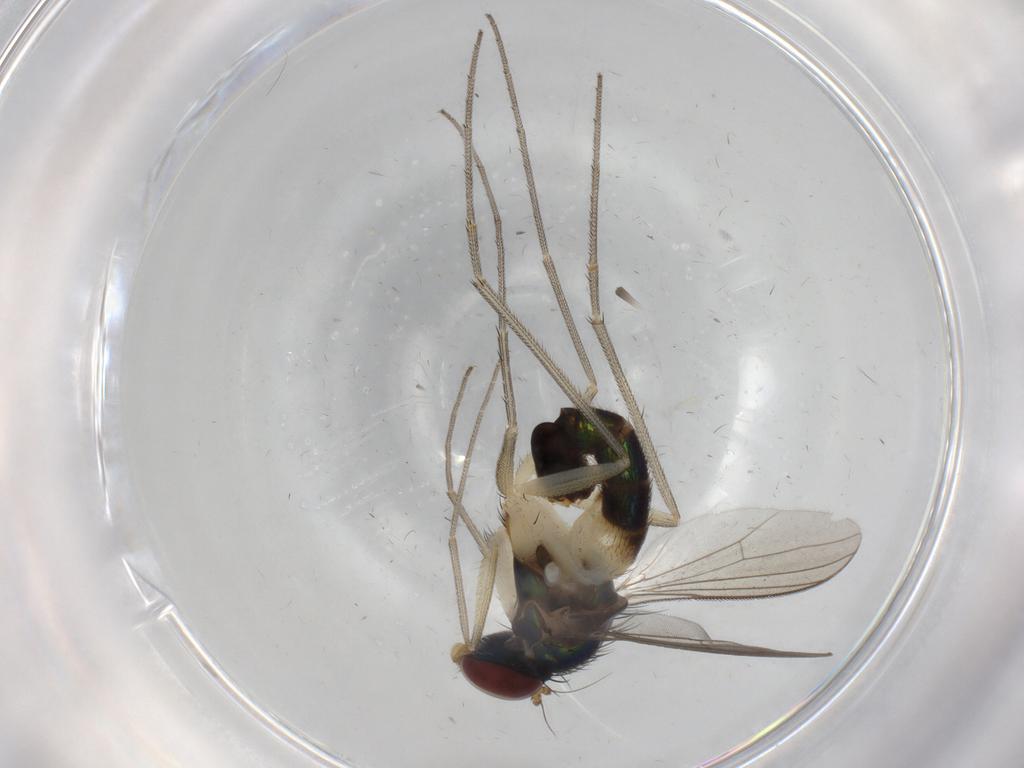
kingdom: Animalia
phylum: Arthropoda
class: Insecta
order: Diptera
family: Dolichopodidae
